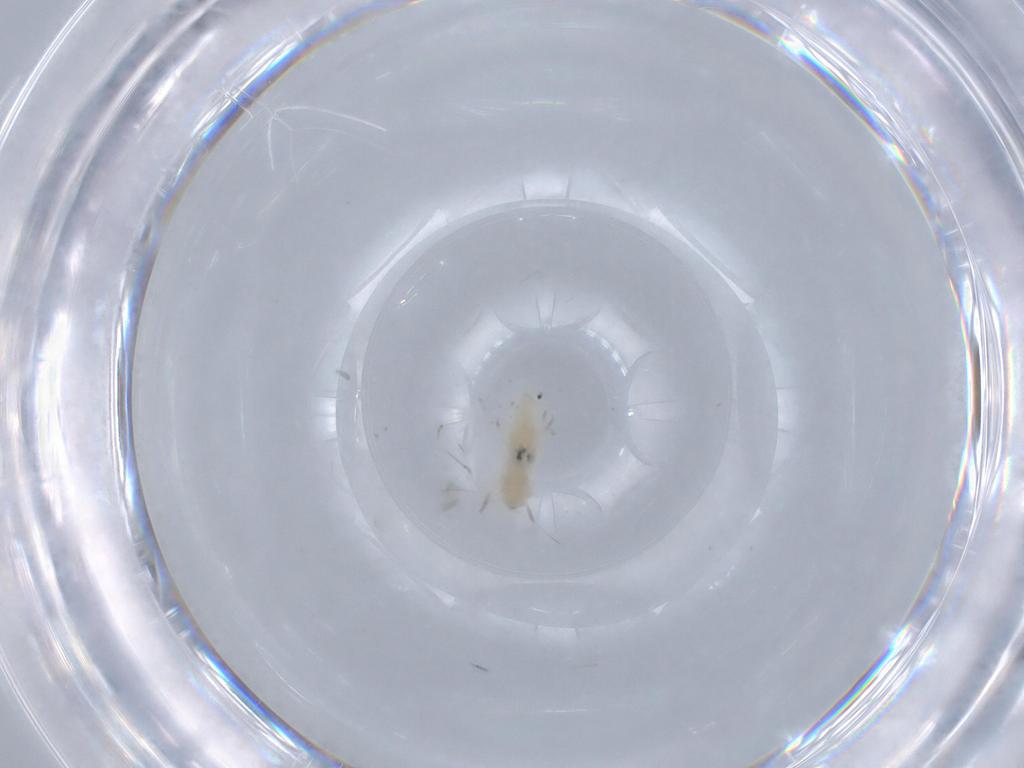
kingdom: Animalia
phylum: Arthropoda
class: Insecta
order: Diptera
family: Cecidomyiidae
